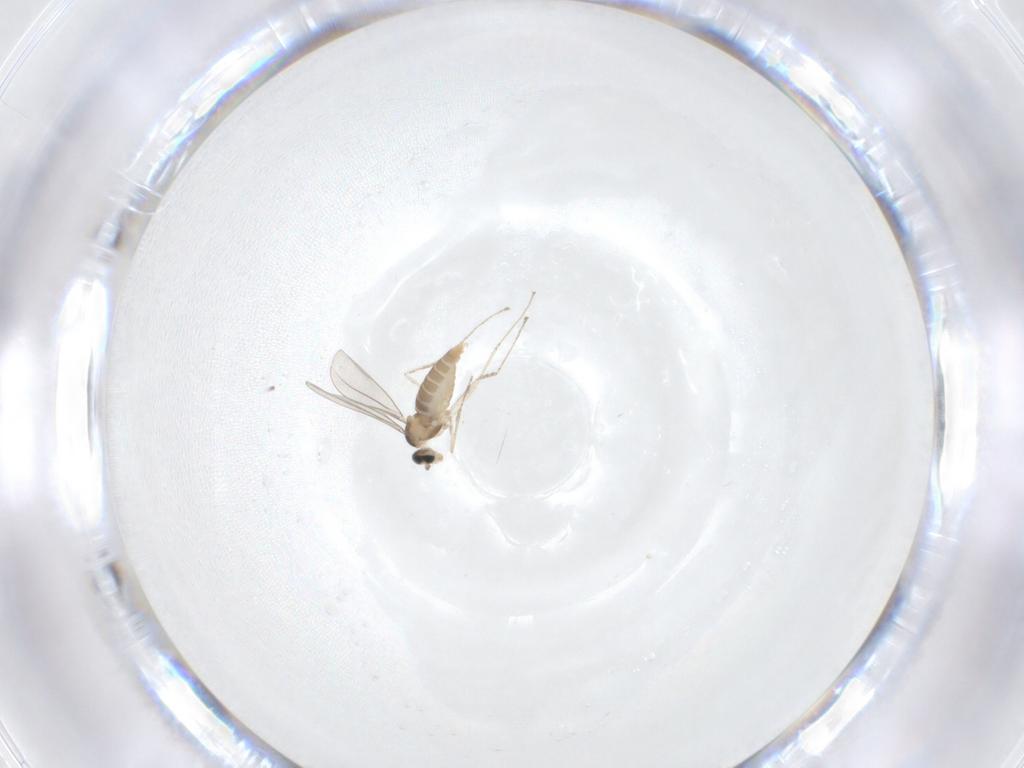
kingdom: Animalia
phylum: Arthropoda
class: Insecta
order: Diptera
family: Cecidomyiidae
